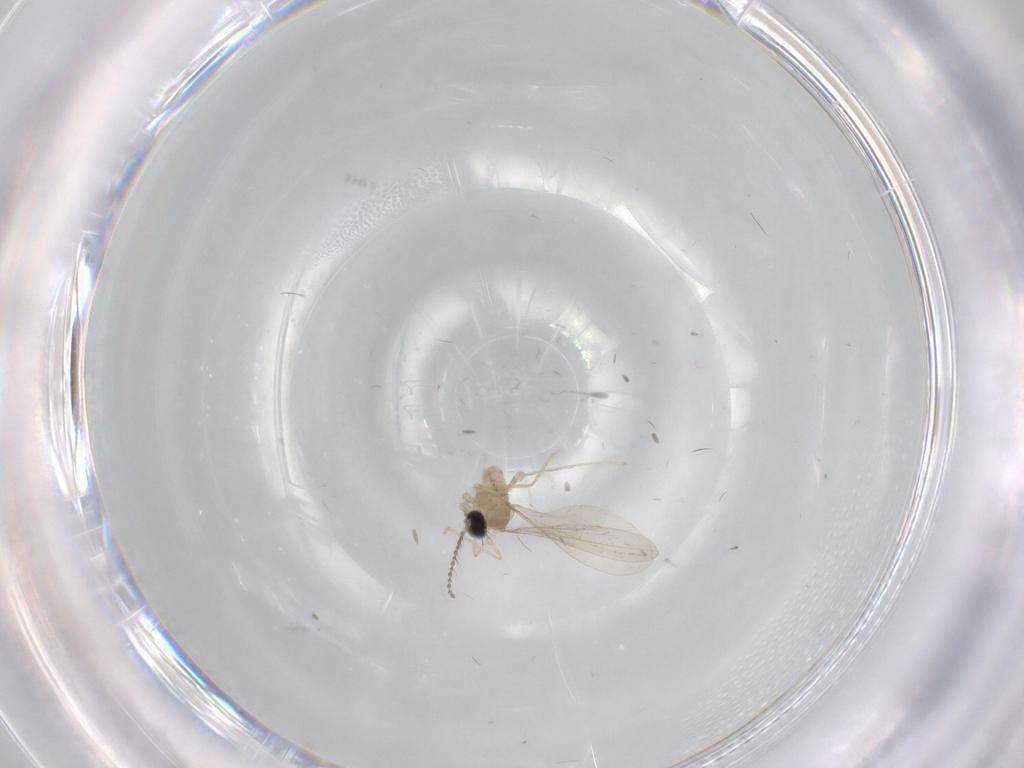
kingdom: Animalia
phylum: Arthropoda
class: Insecta
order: Diptera
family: Cecidomyiidae
